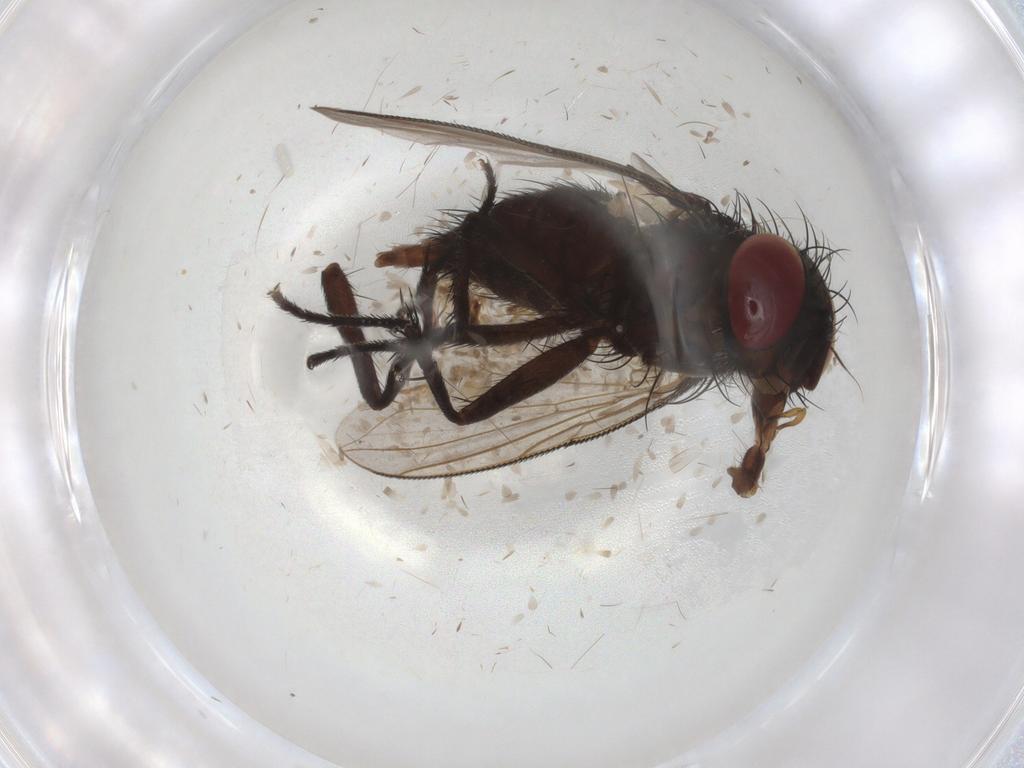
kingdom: Animalia
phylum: Arthropoda
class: Insecta
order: Diptera
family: Tachinidae
